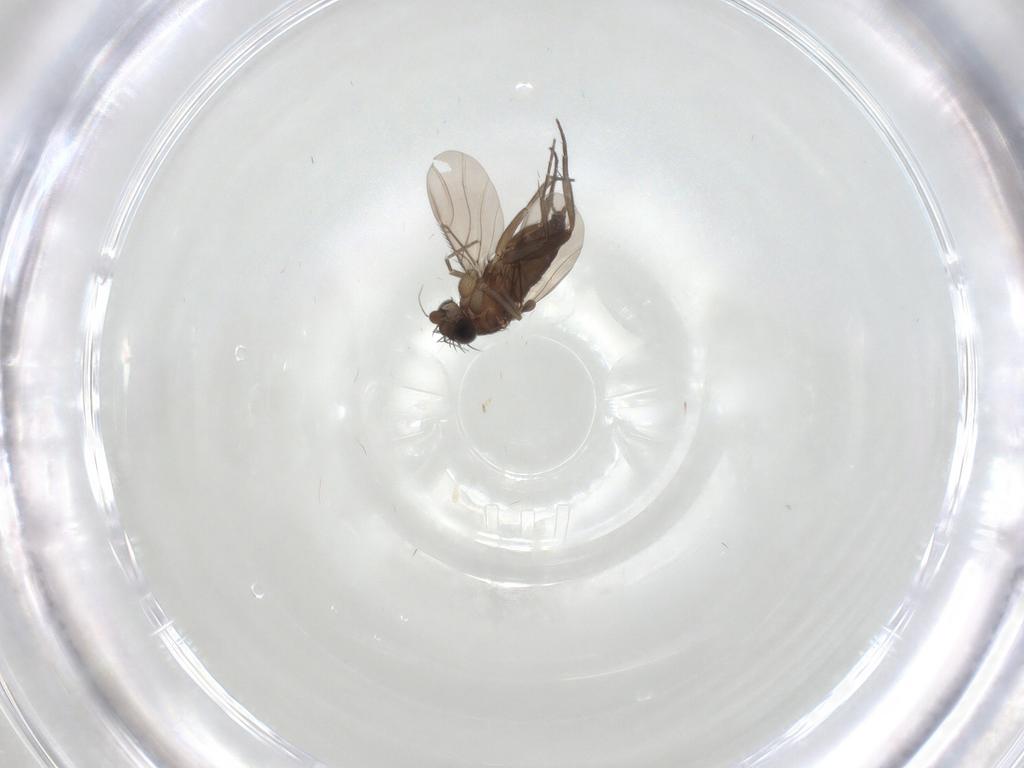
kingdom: Animalia
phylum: Arthropoda
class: Insecta
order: Diptera
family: Phoridae
